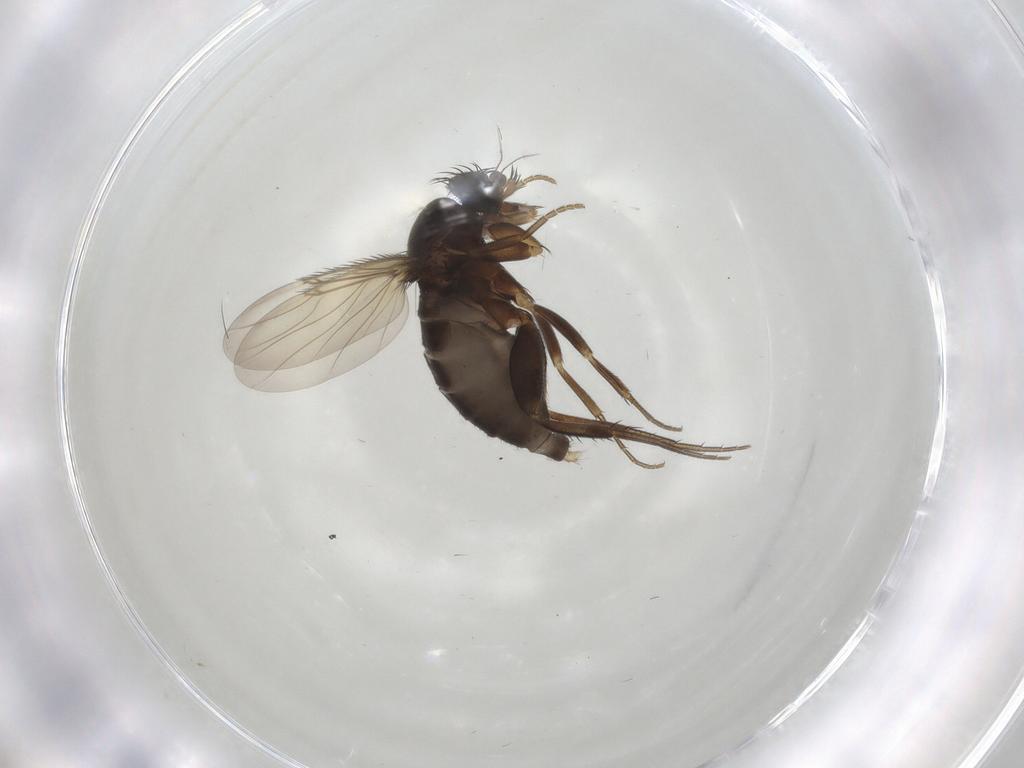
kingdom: Animalia
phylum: Arthropoda
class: Insecta
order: Diptera
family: Phoridae
